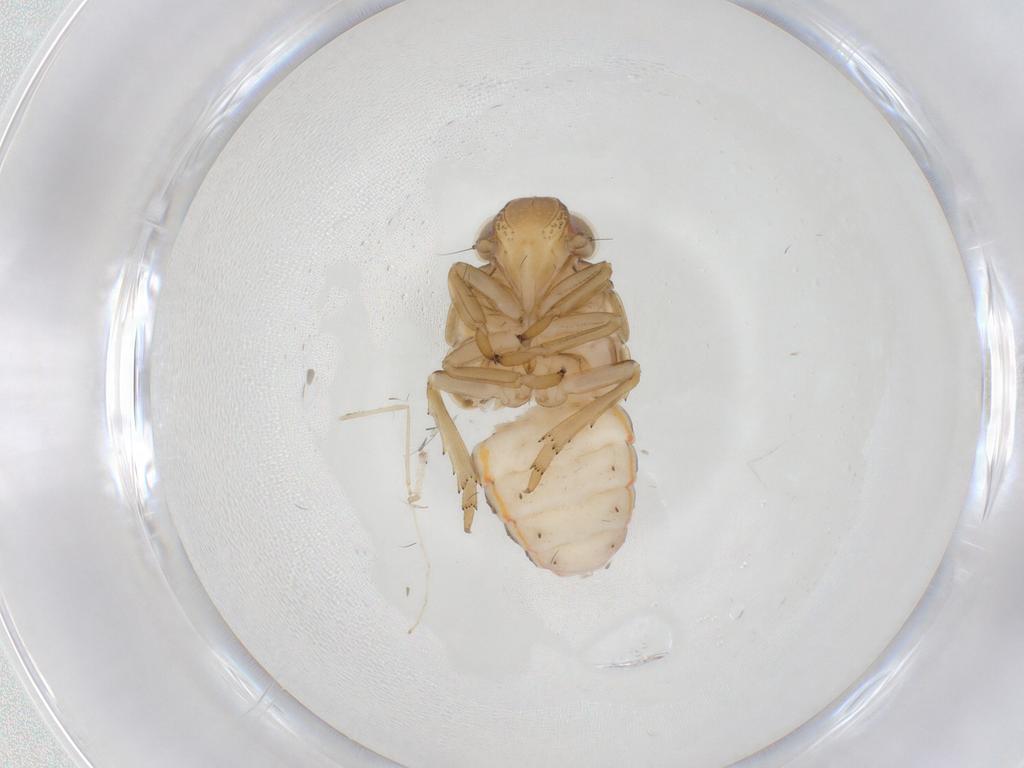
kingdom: Animalia
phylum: Arthropoda
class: Insecta
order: Hemiptera
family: Issidae
